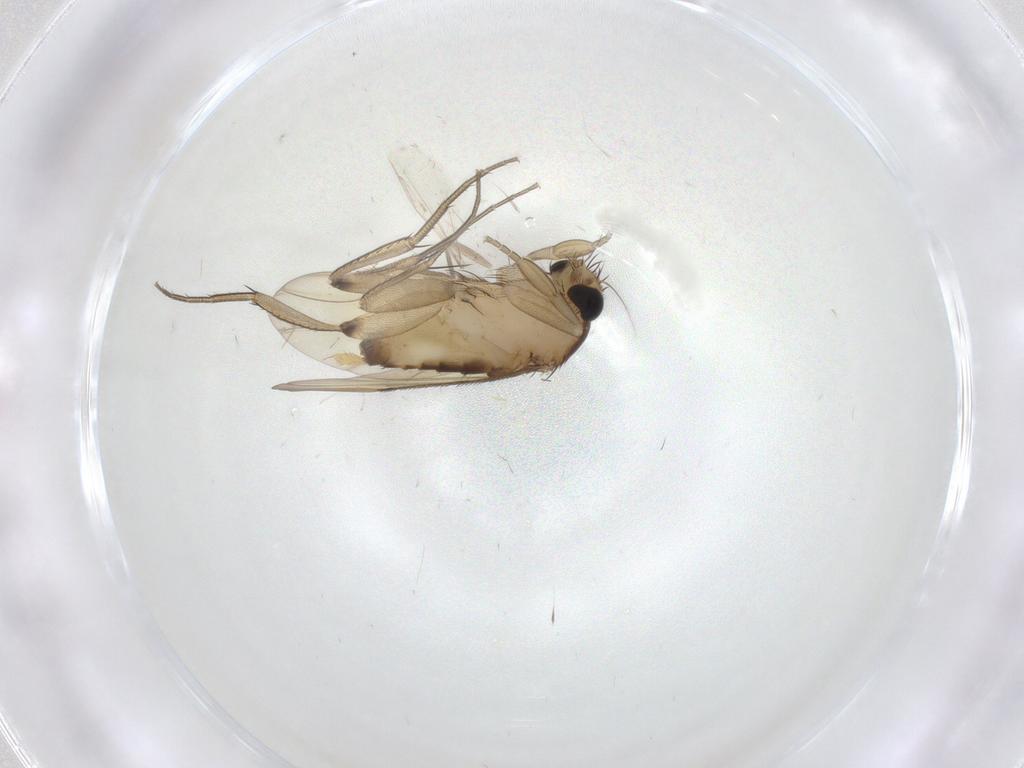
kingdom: Animalia
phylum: Arthropoda
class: Insecta
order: Diptera
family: Phoridae
